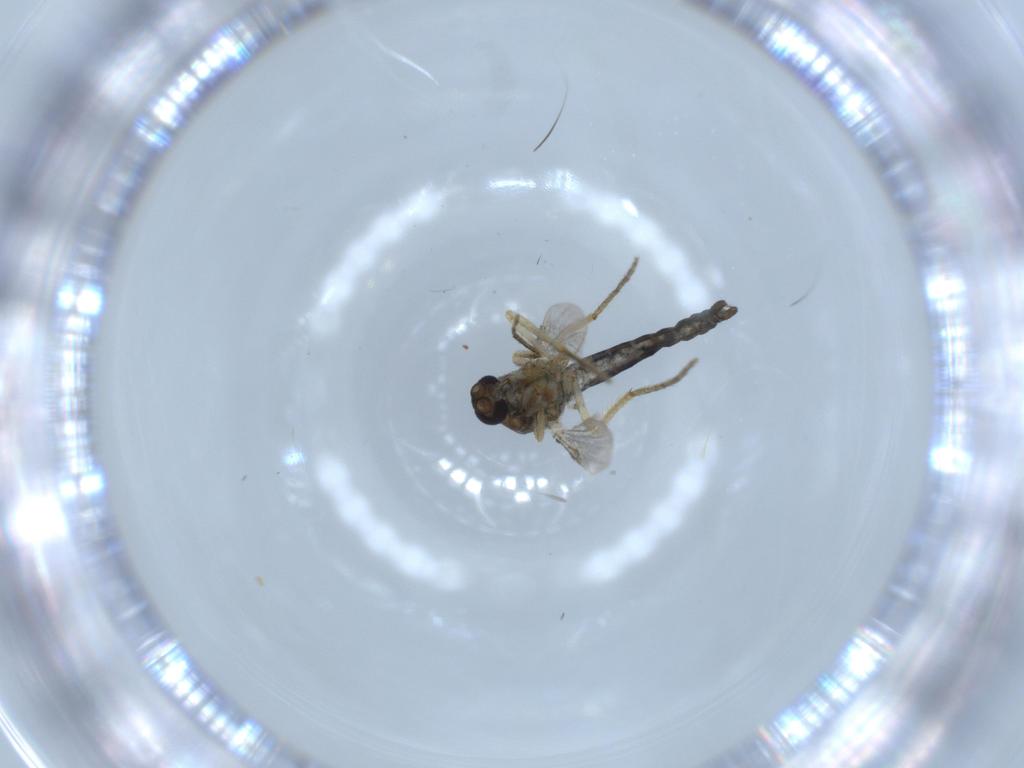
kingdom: Animalia
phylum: Arthropoda
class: Insecta
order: Diptera
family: Ceratopogonidae
